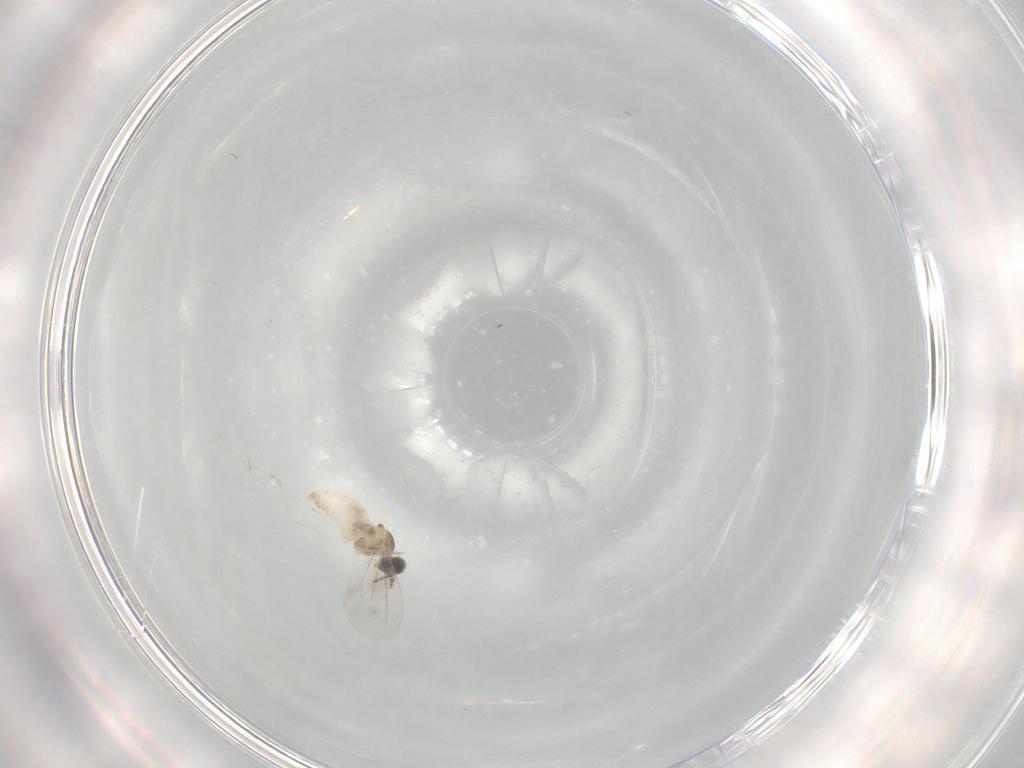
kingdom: Animalia
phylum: Arthropoda
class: Insecta
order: Diptera
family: Cecidomyiidae
